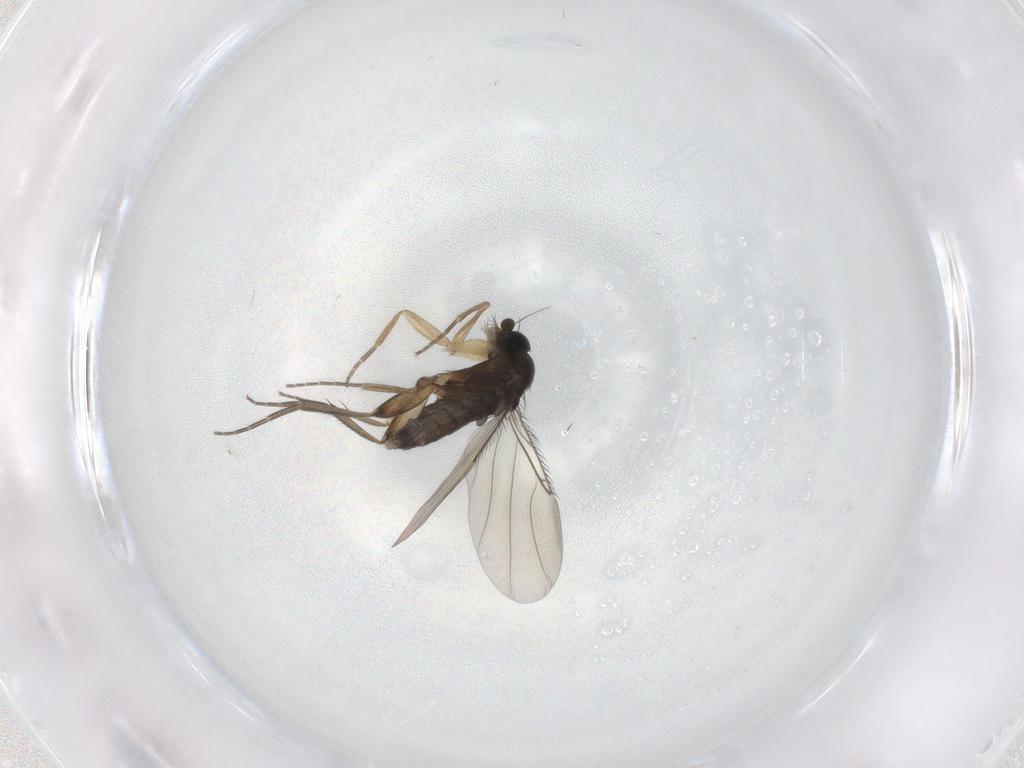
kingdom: Animalia
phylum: Arthropoda
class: Insecta
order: Diptera
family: Phoridae
